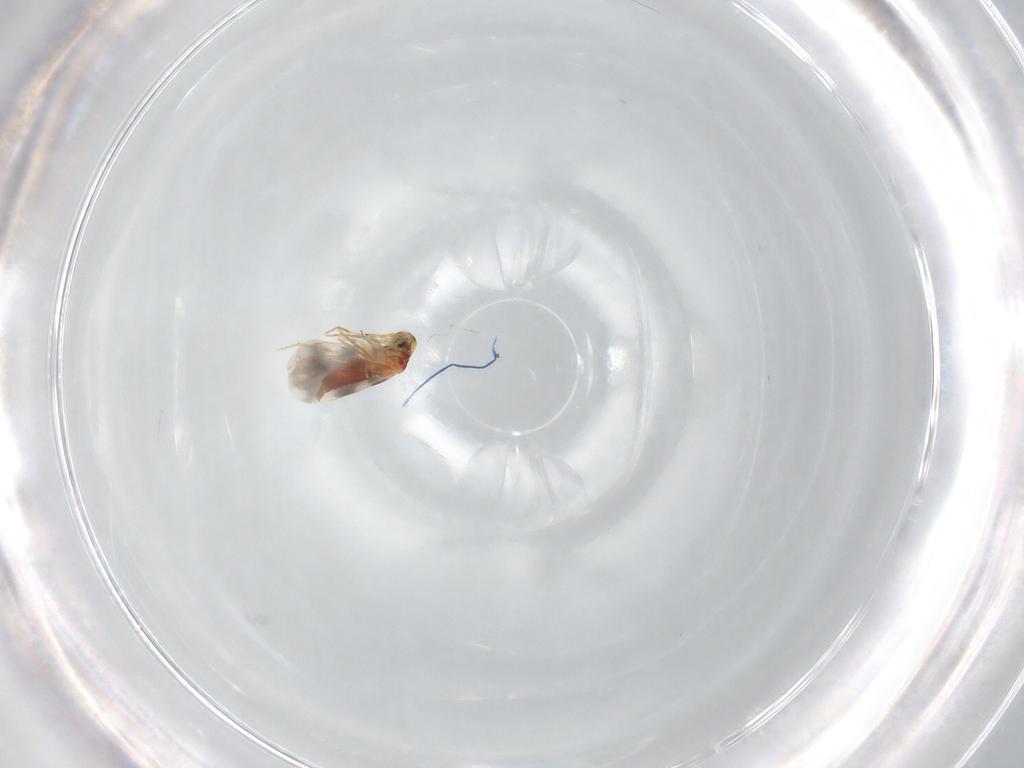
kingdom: Animalia
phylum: Arthropoda
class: Insecta
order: Hemiptera
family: Aleyrodidae
